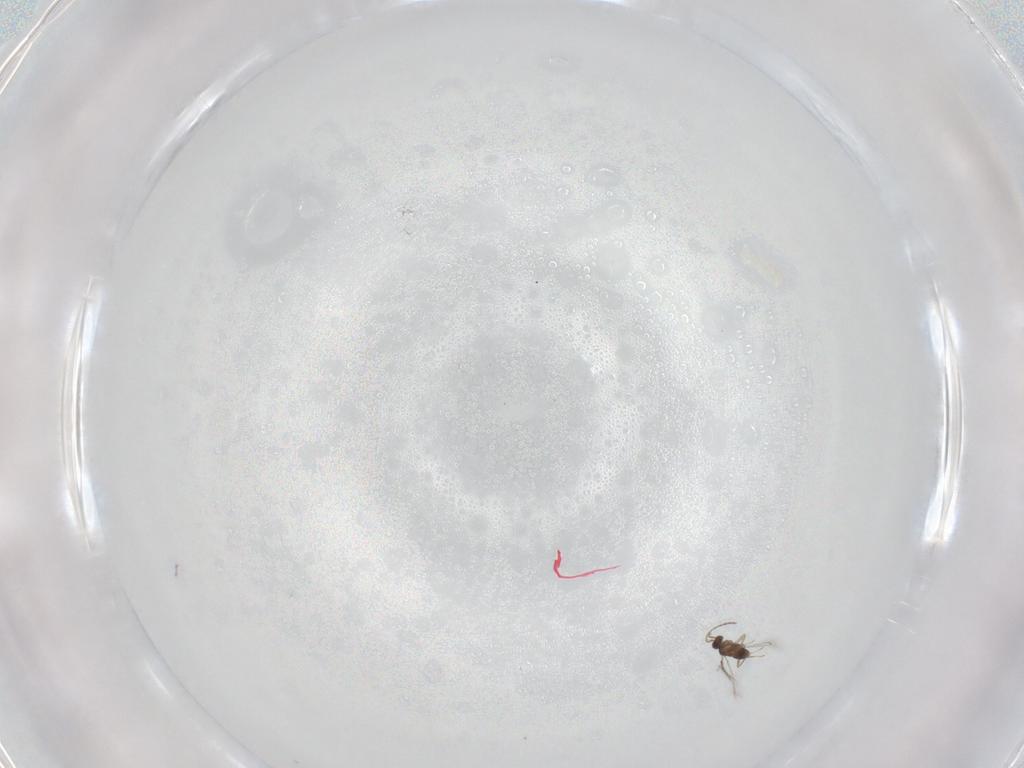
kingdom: Animalia
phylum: Arthropoda
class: Insecta
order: Hymenoptera
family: Mymaridae
